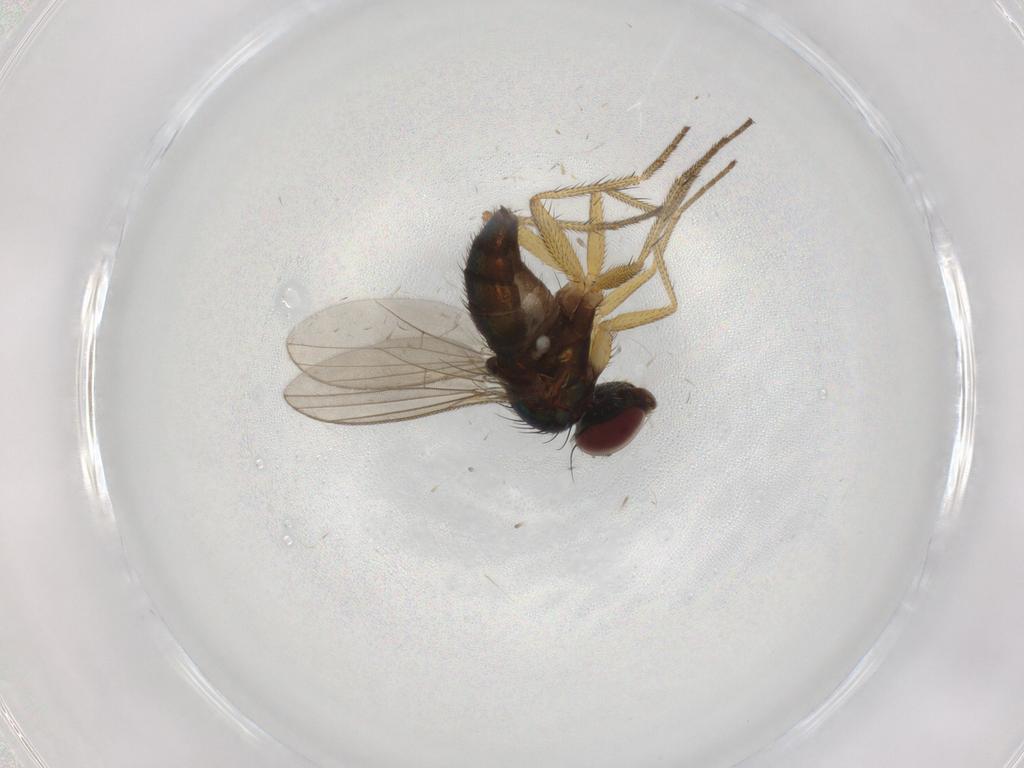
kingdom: Animalia
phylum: Arthropoda
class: Insecta
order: Diptera
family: Dolichopodidae
